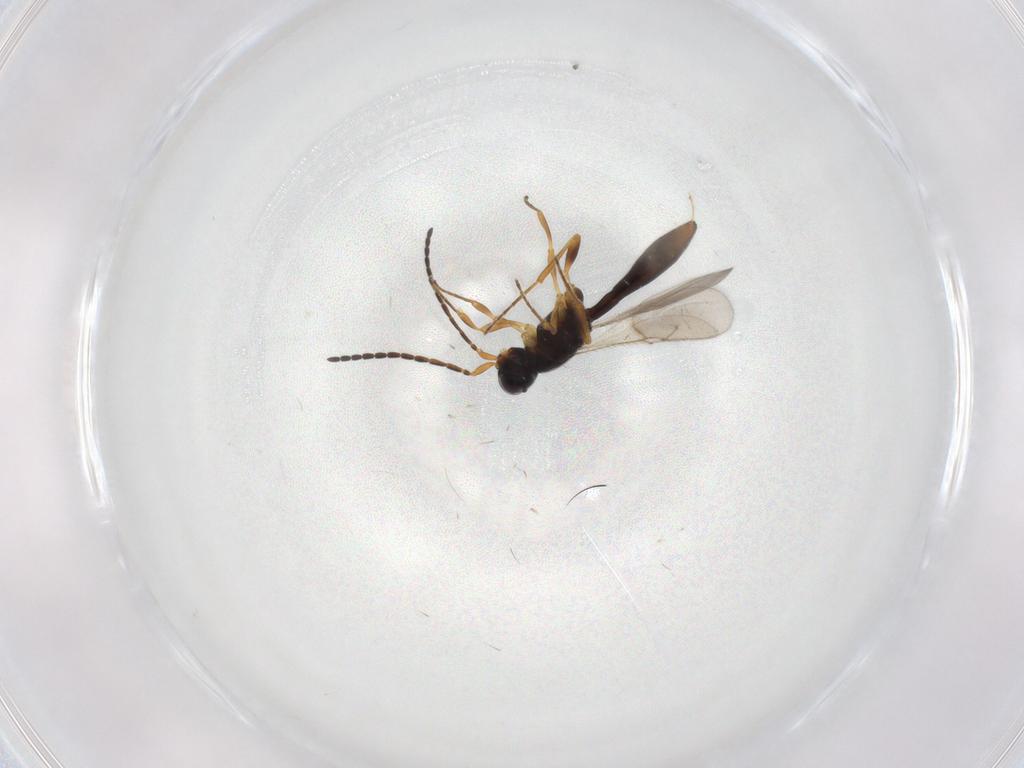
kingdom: Animalia
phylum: Arthropoda
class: Insecta
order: Hymenoptera
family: Scelionidae
